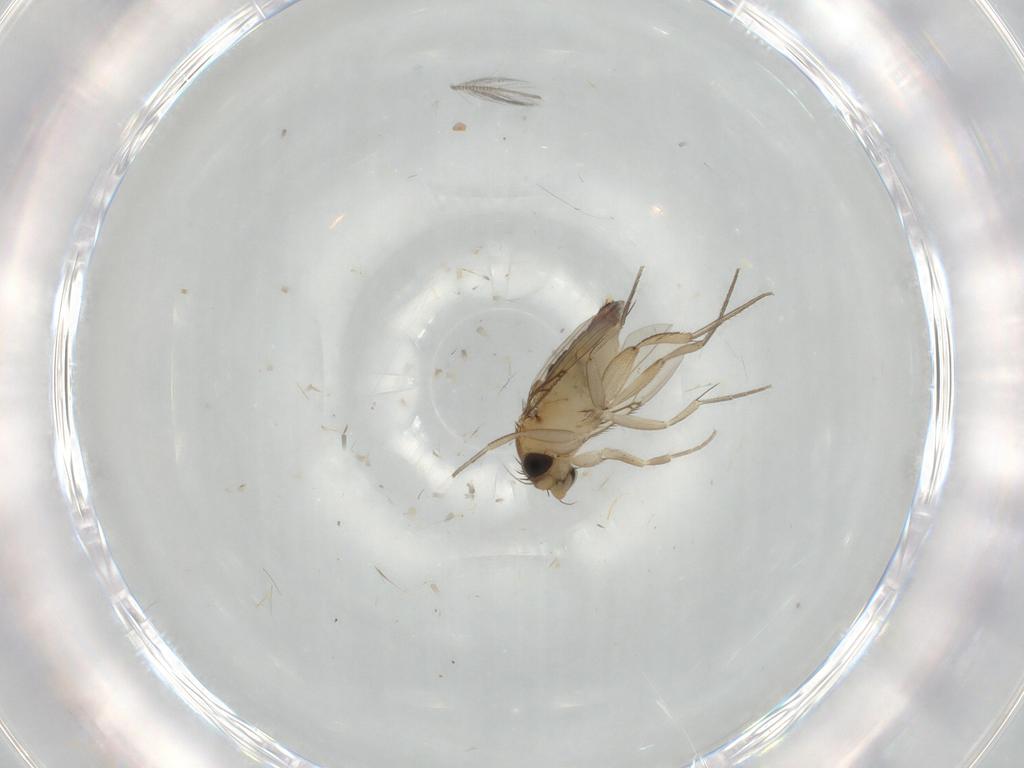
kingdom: Animalia
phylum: Arthropoda
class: Insecta
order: Diptera
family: Phoridae
